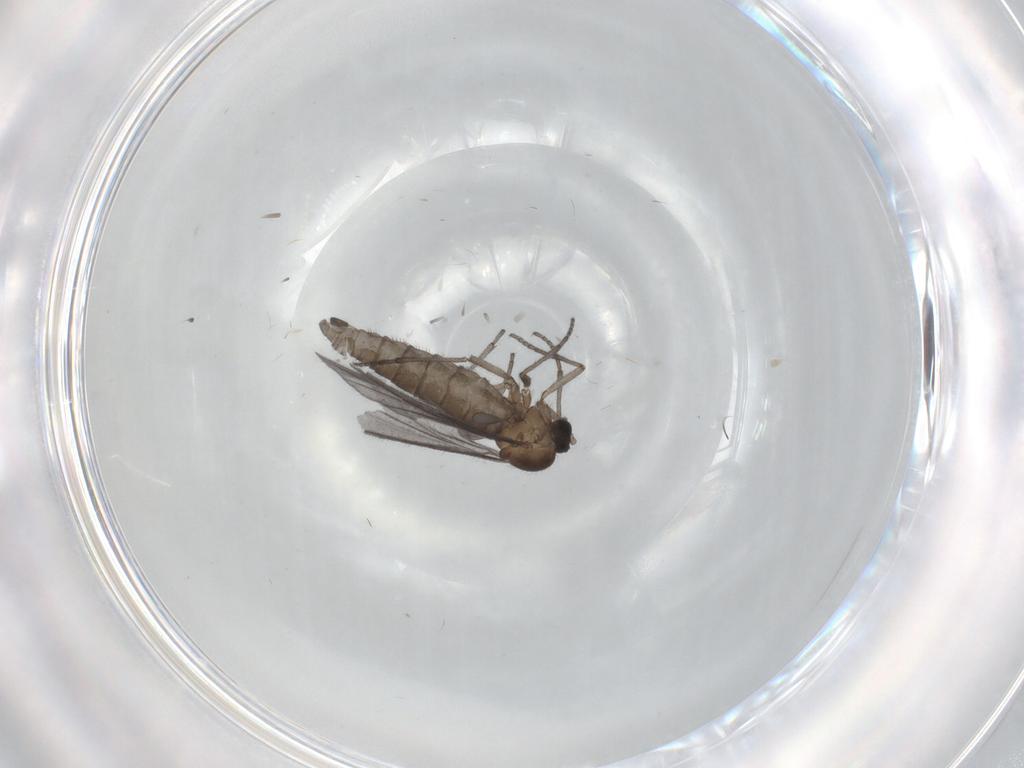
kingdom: Animalia
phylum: Arthropoda
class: Insecta
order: Diptera
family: Sciaridae
